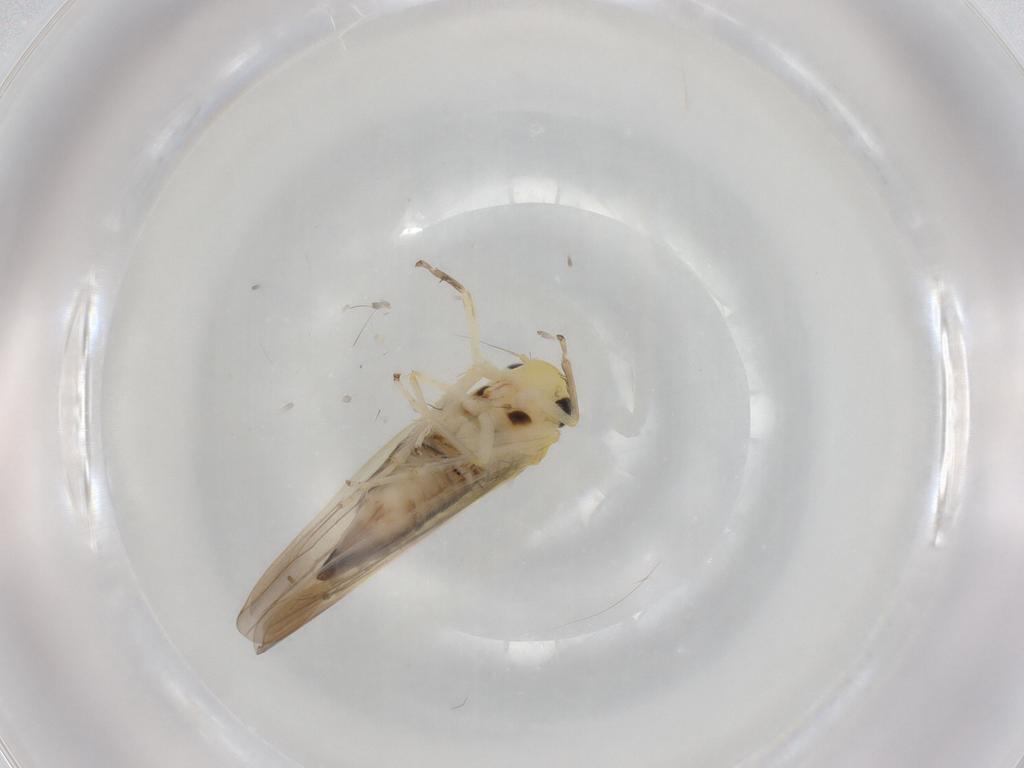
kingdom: Animalia
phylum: Arthropoda
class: Insecta
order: Hemiptera
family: Cicadellidae
